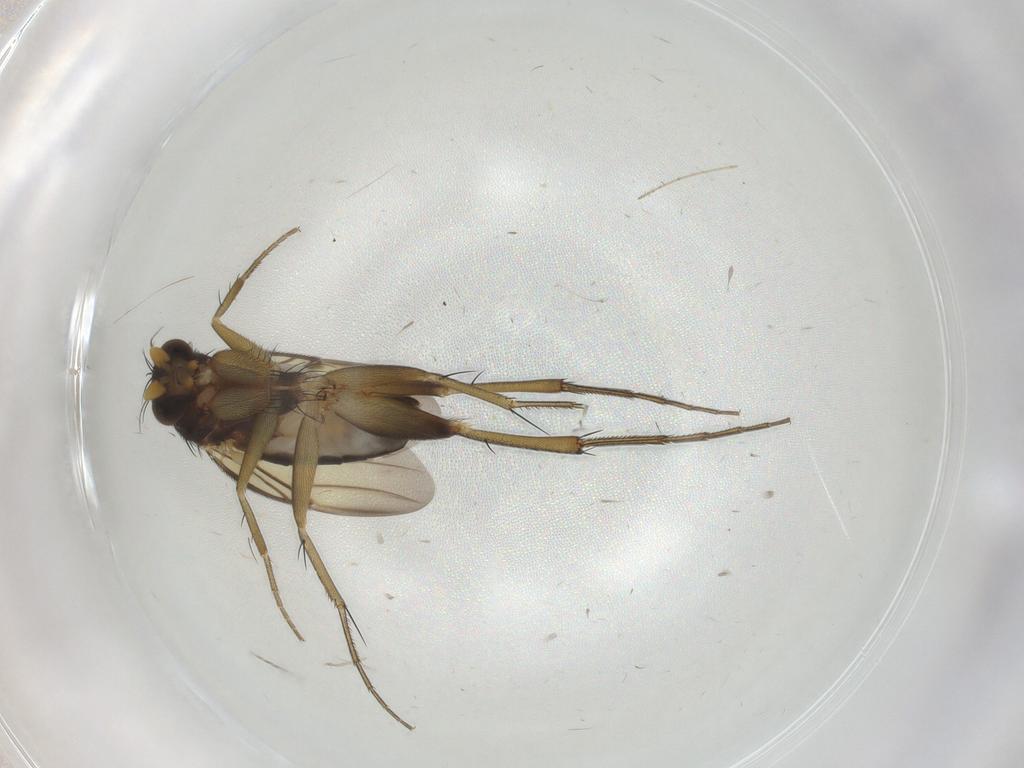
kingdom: Animalia
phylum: Arthropoda
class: Insecta
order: Diptera
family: Phoridae
